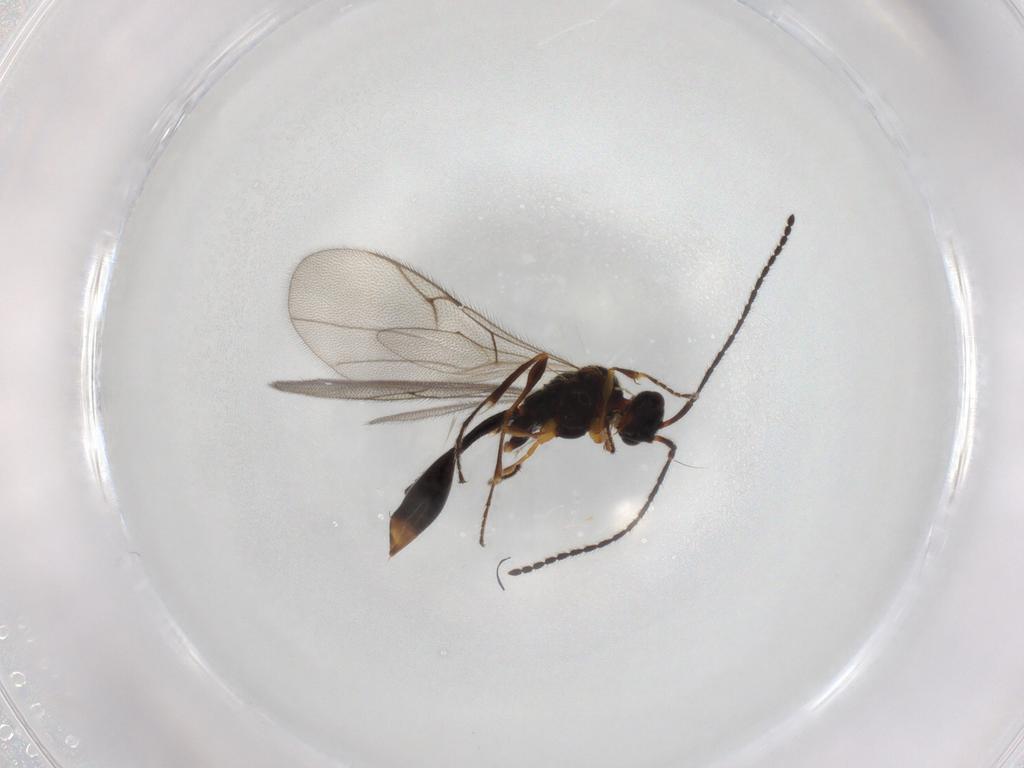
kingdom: Animalia
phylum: Arthropoda
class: Insecta
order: Hymenoptera
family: Diapriidae
